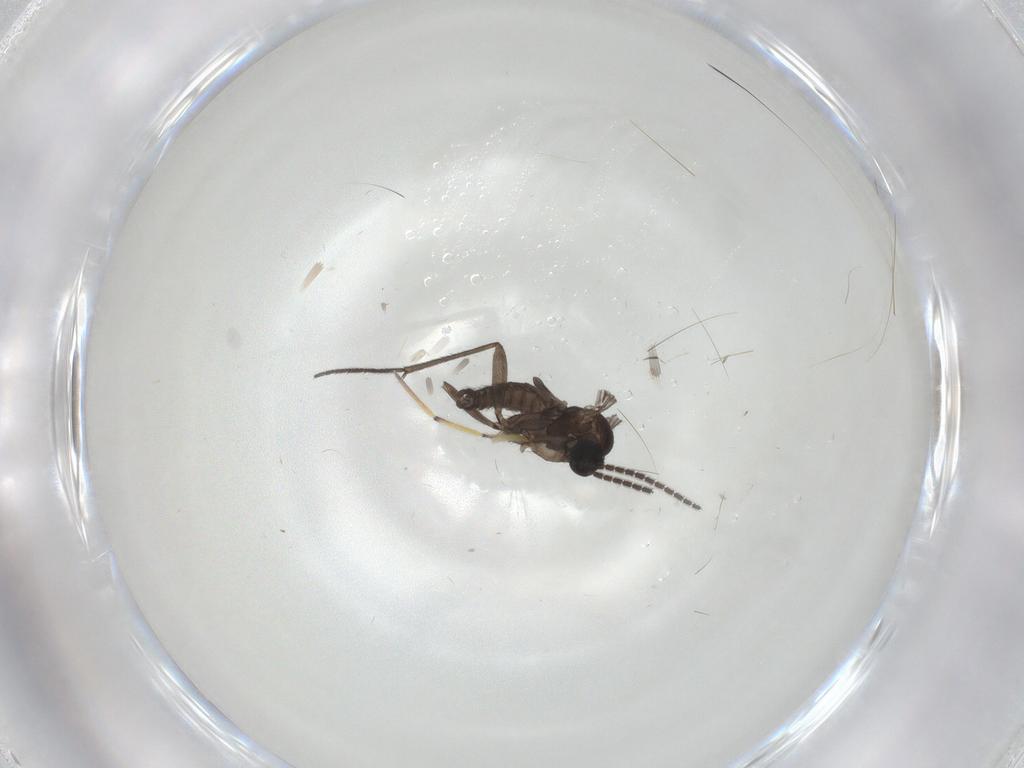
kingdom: Animalia
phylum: Arthropoda
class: Insecta
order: Diptera
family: Sciaridae
